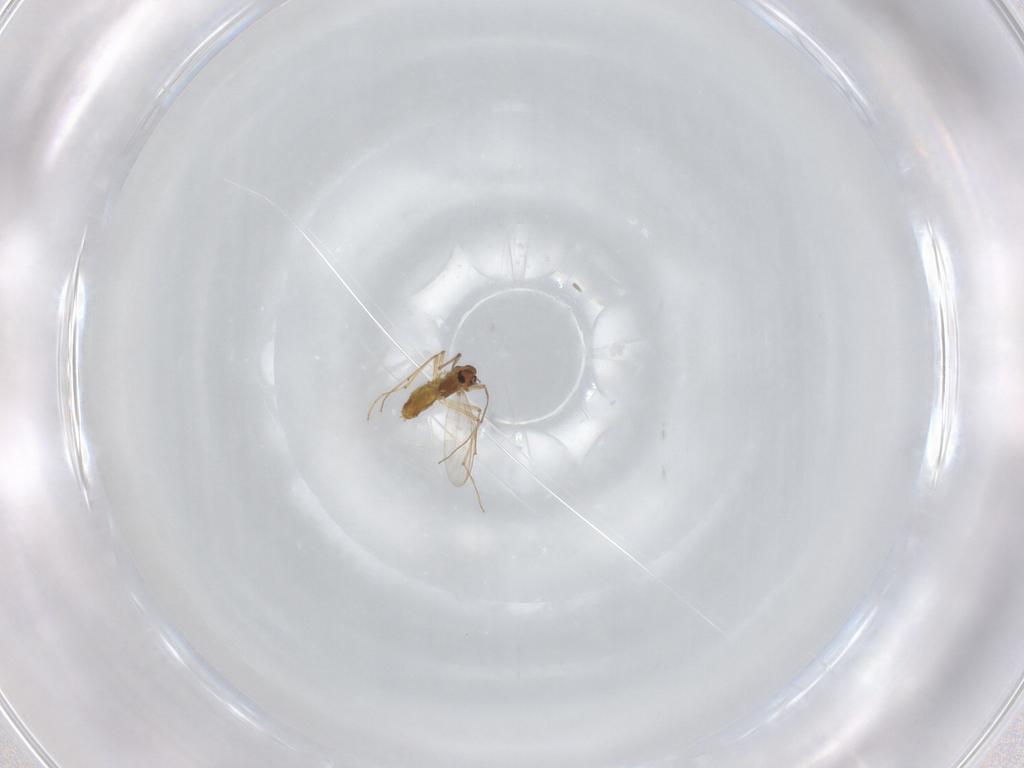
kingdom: Animalia
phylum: Arthropoda
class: Insecta
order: Diptera
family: Chironomidae
